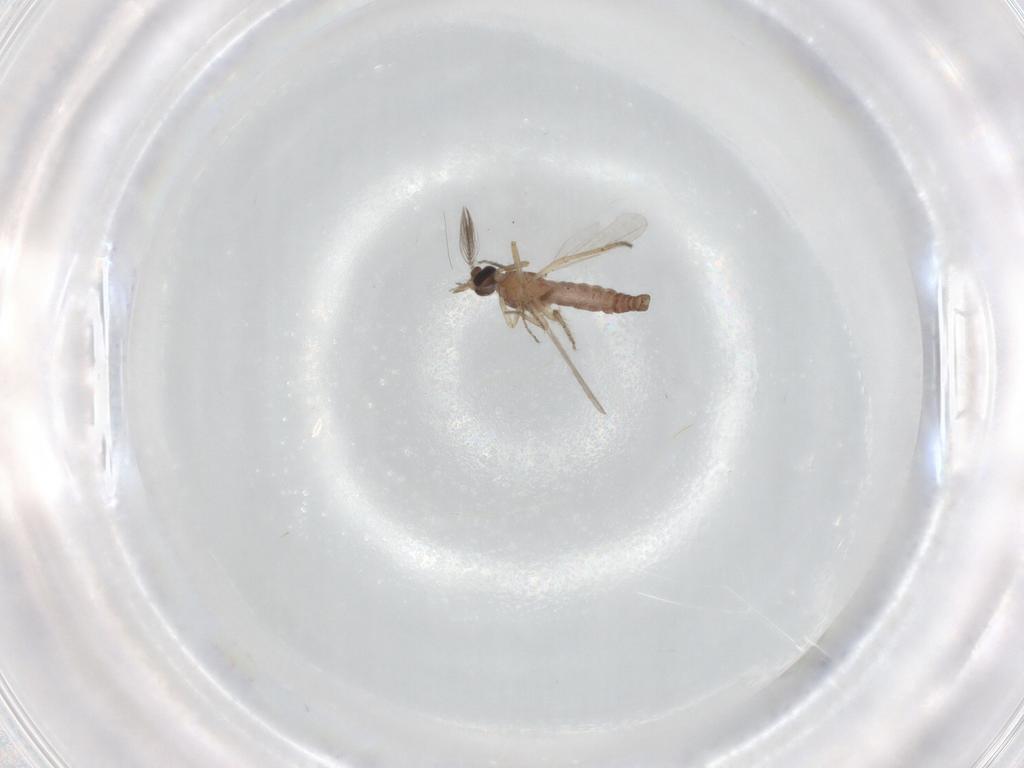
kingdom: Animalia
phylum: Arthropoda
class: Insecta
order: Diptera
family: Ceratopogonidae
